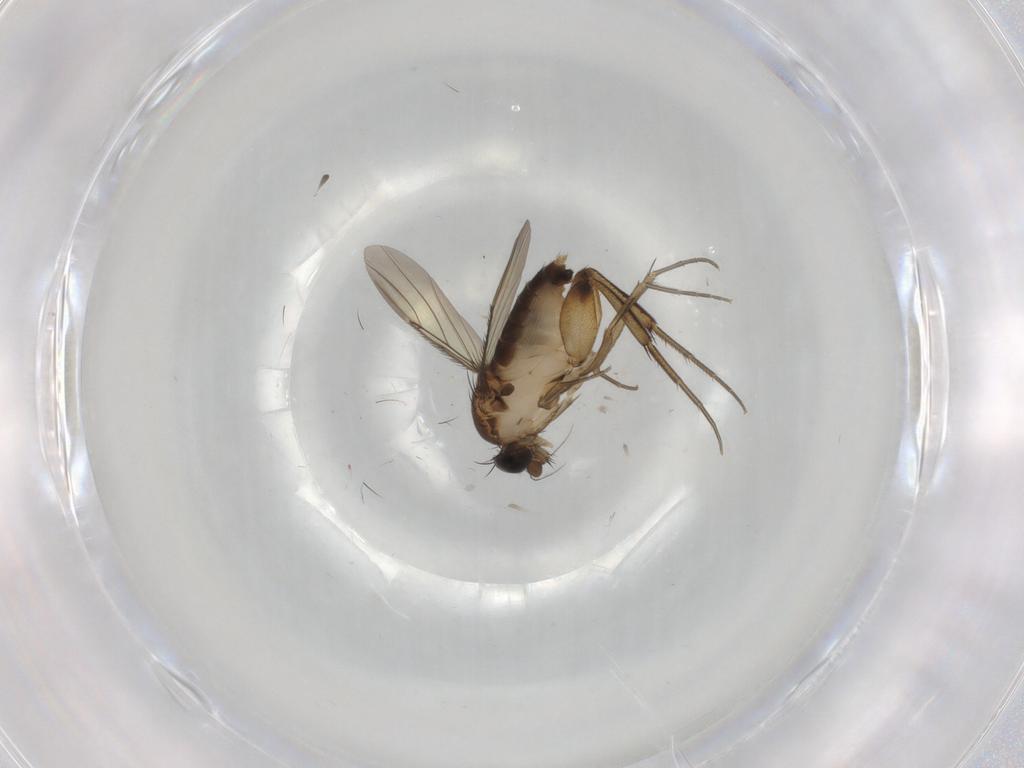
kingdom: Animalia
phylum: Arthropoda
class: Insecta
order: Diptera
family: Phoridae
